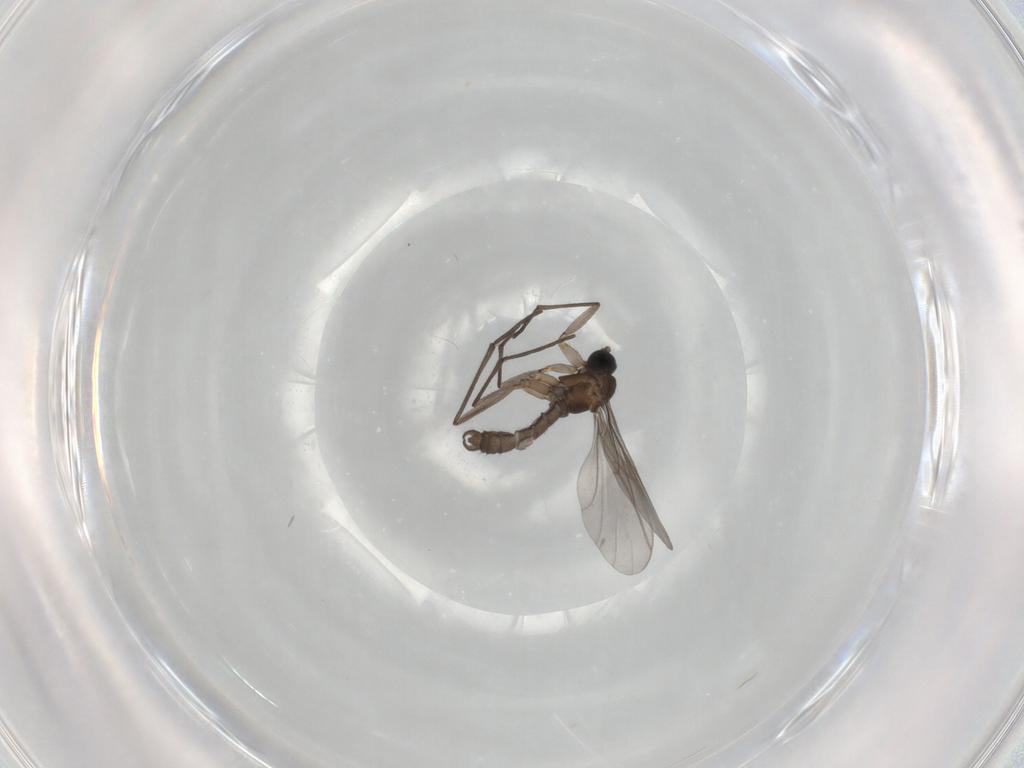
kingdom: Animalia
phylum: Arthropoda
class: Insecta
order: Diptera
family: Sciaridae
